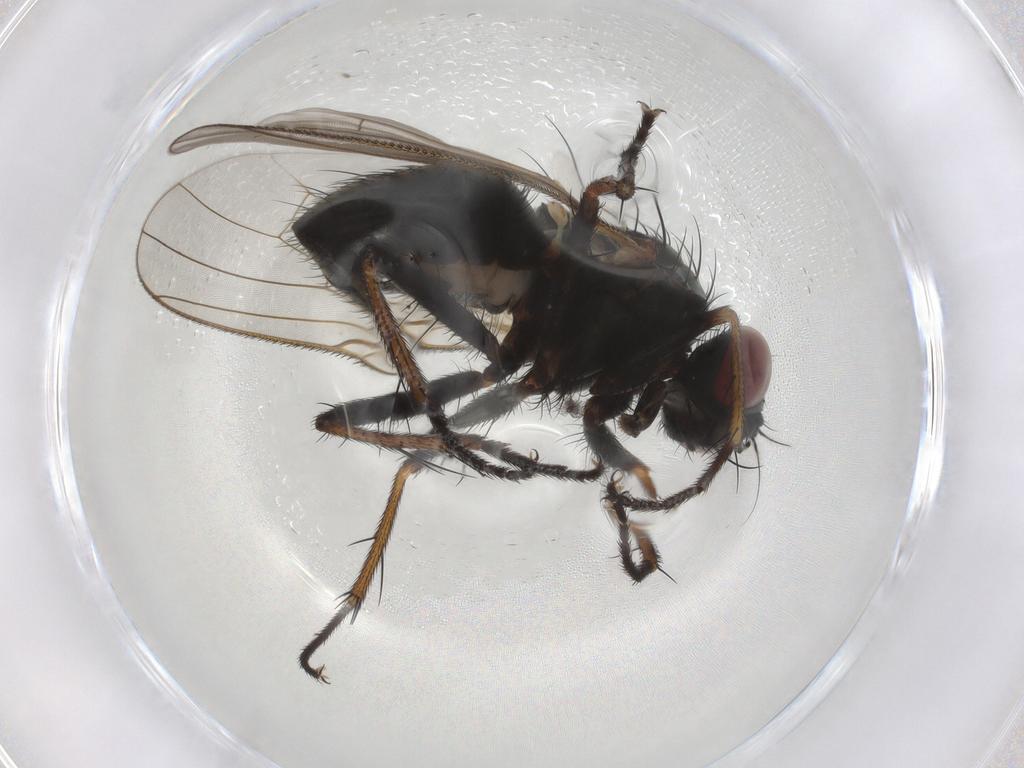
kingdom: Animalia
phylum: Arthropoda
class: Insecta
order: Diptera
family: Muscidae
